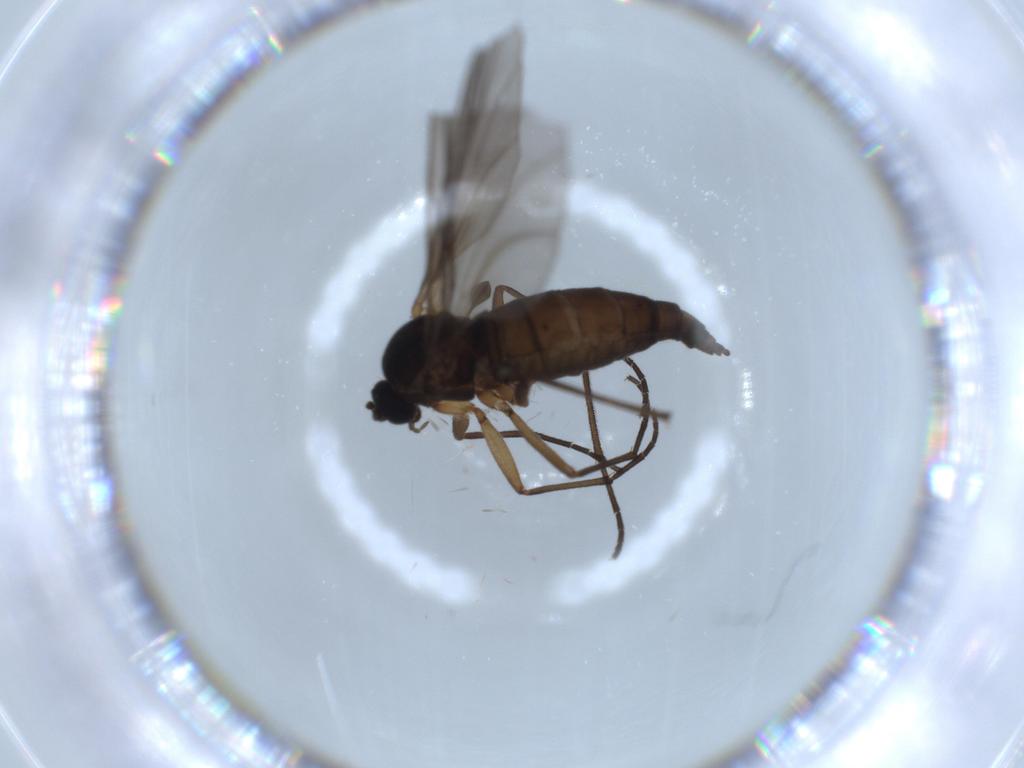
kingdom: Animalia
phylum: Arthropoda
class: Insecta
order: Diptera
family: Sciaridae
